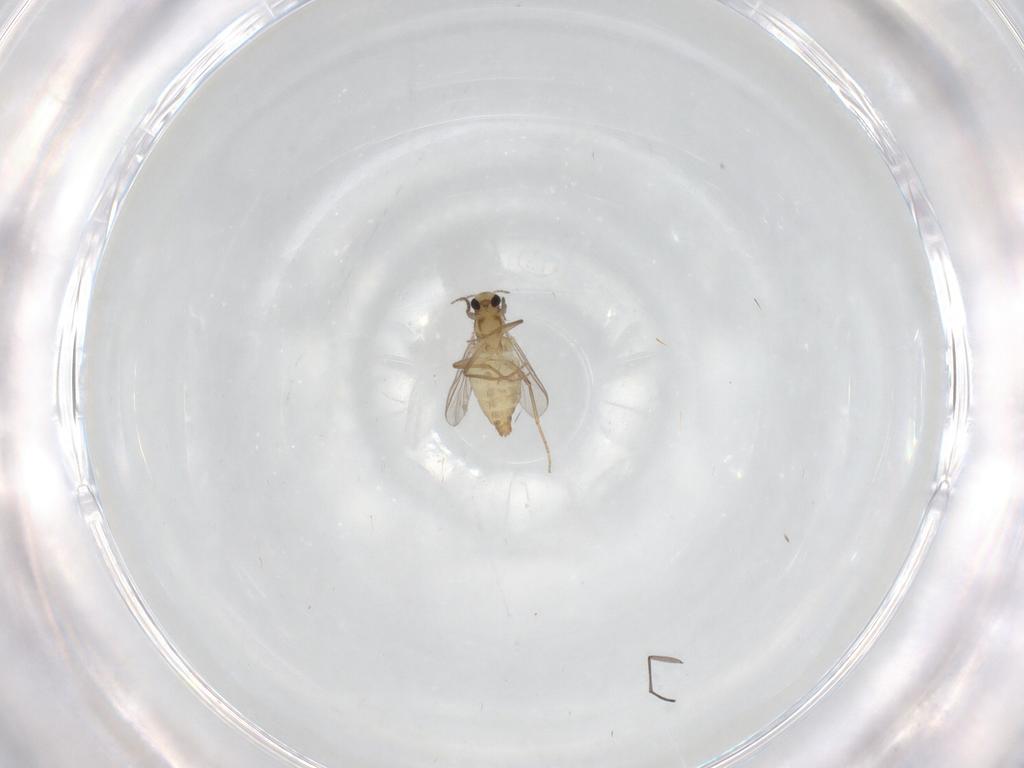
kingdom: Animalia
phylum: Arthropoda
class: Insecta
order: Diptera
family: Chironomidae
